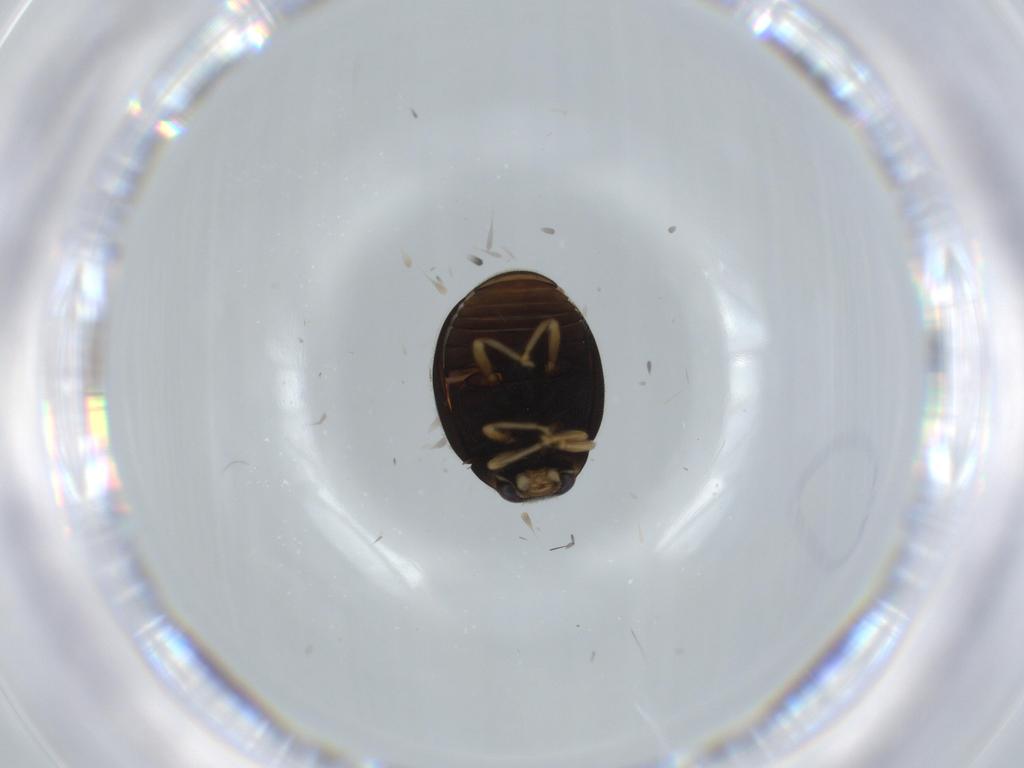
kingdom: Animalia
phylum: Arthropoda
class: Insecta
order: Coleoptera
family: Coccinellidae
